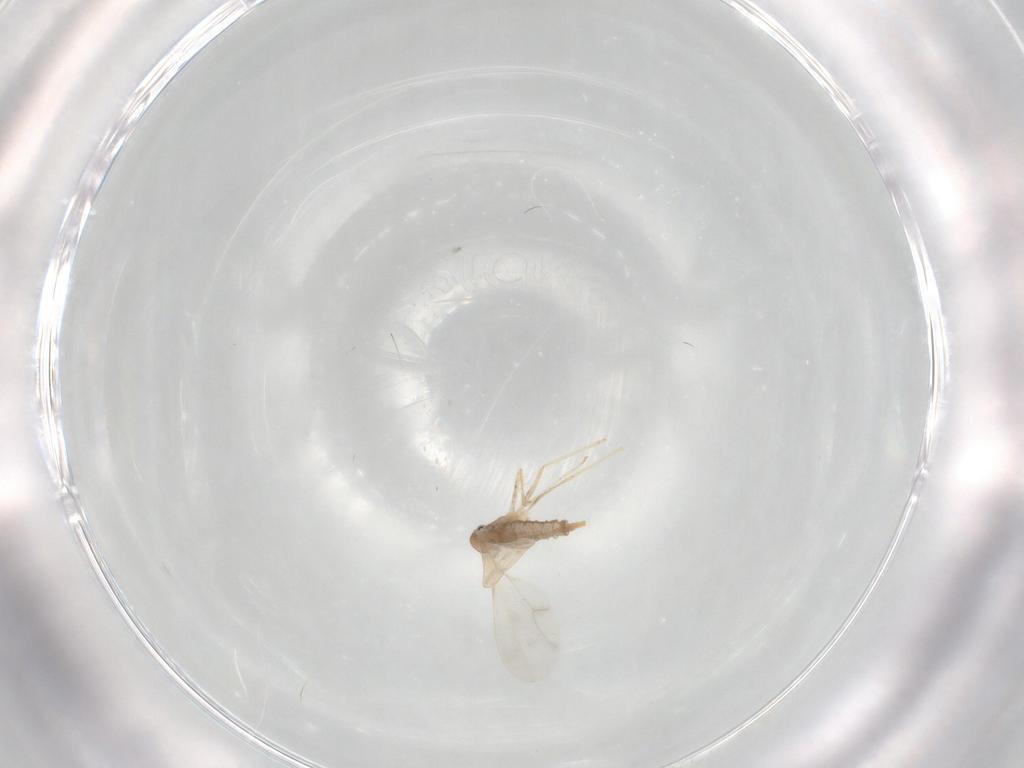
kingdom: Animalia
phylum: Arthropoda
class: Insecta
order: Diptera
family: Cecidomyiidae
